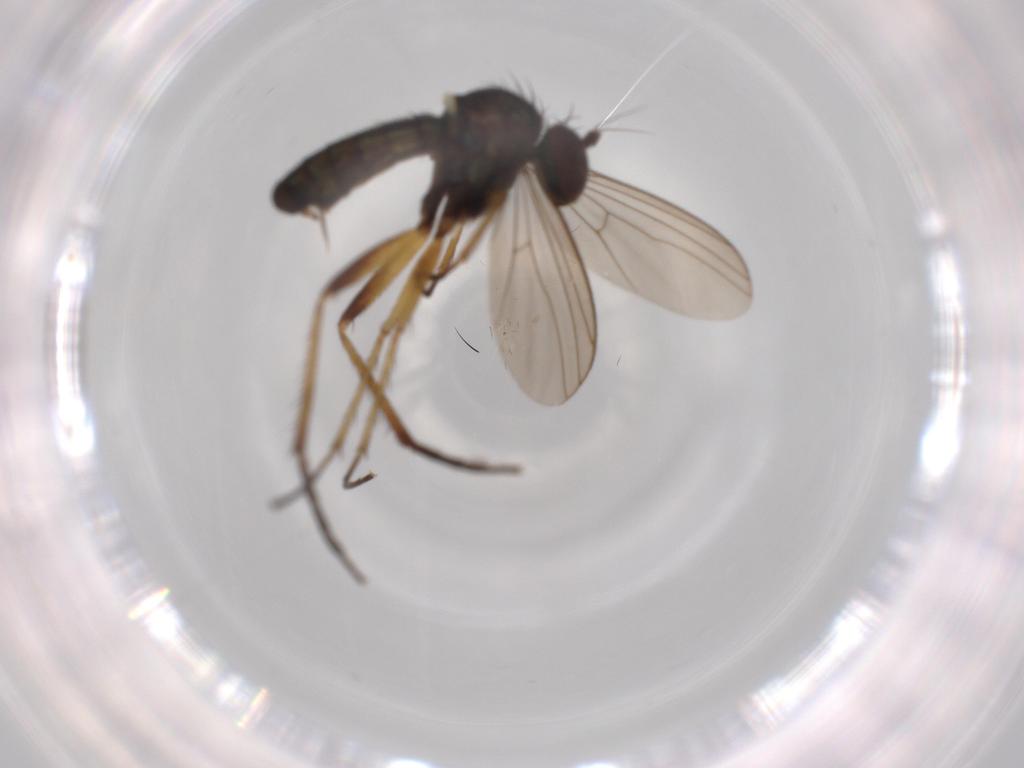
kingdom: Animalia
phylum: Arthropoda
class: Insecta
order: Diptera
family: Dolichopodidae
